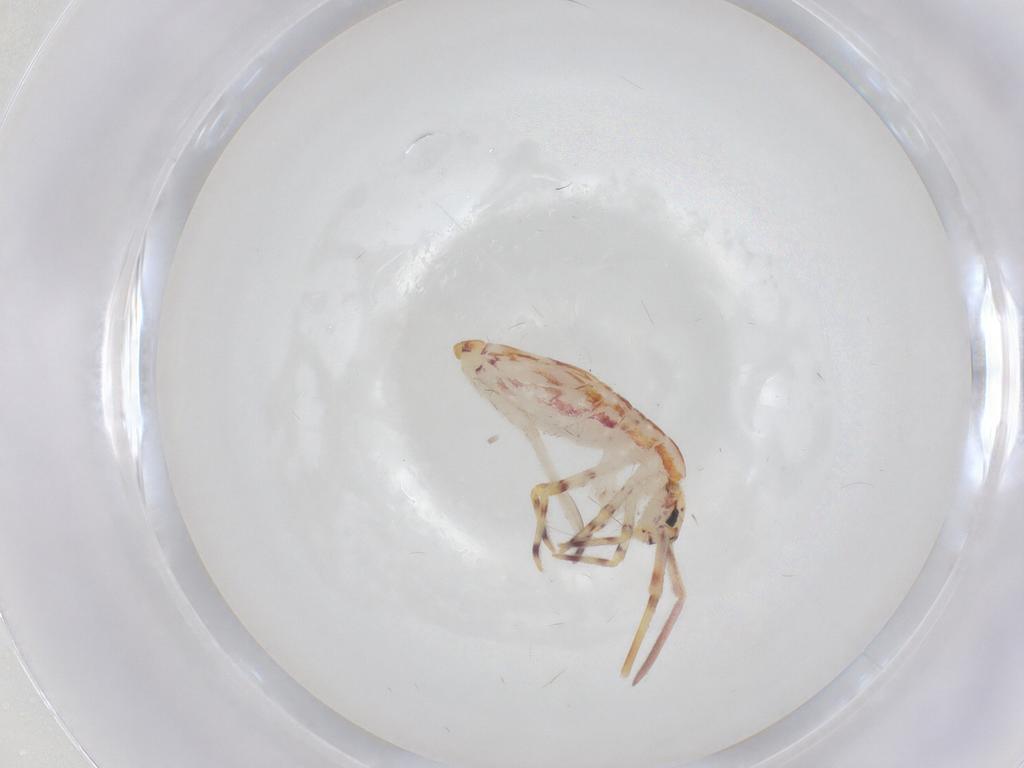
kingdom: Animalia
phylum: Arthropoda
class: Collembola
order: Entomobryomorpha
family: Entomobryidae
